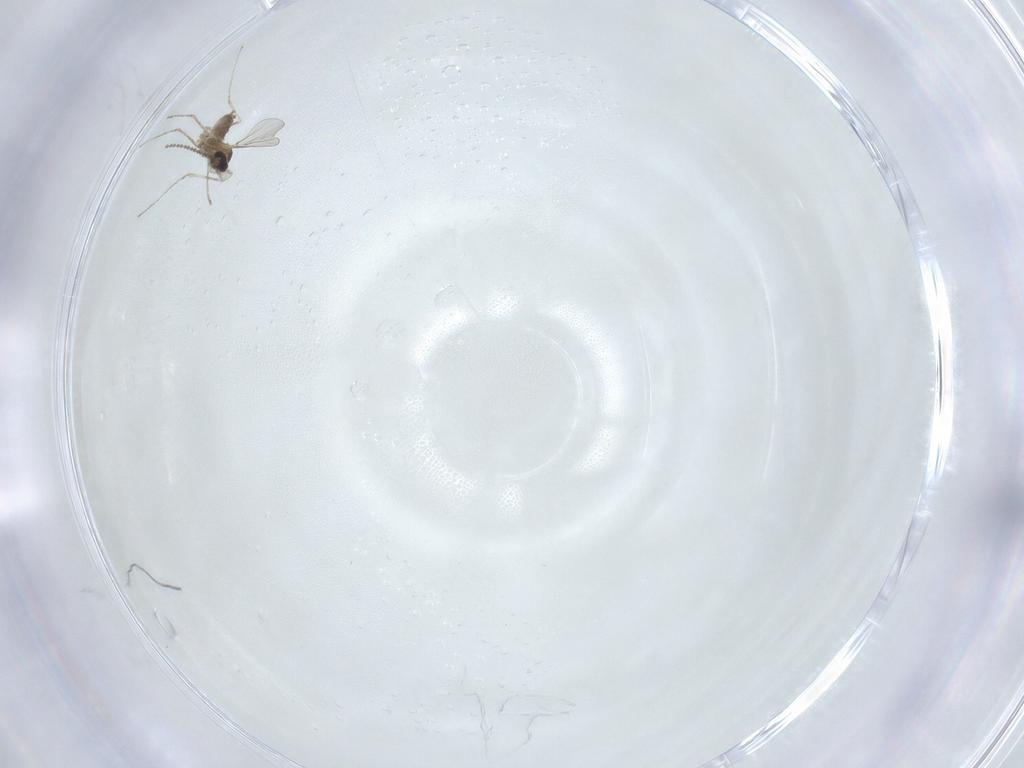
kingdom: Animalia
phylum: Arthropoda
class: Insecta
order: Diptera
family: Cecidomyiidae
